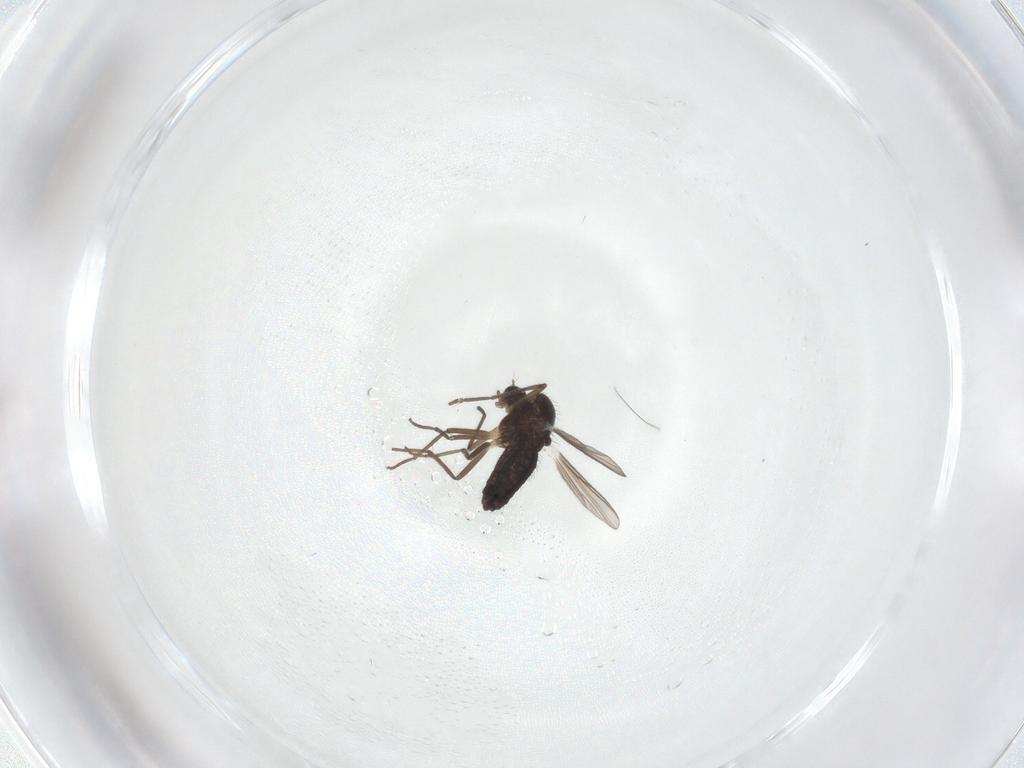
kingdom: Animalia
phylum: Arthropoda
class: Insecta
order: Diptera
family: Chironomidae
